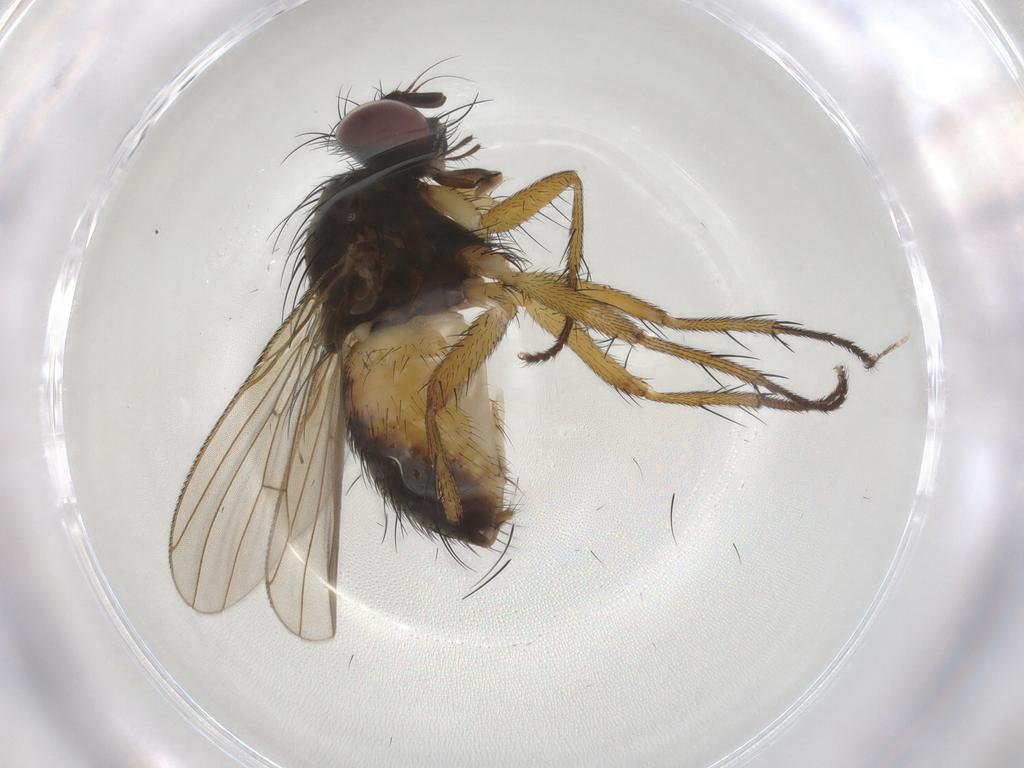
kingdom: Animalia
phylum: Arthropoda
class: Insecta
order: Diptera
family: Muscidae
